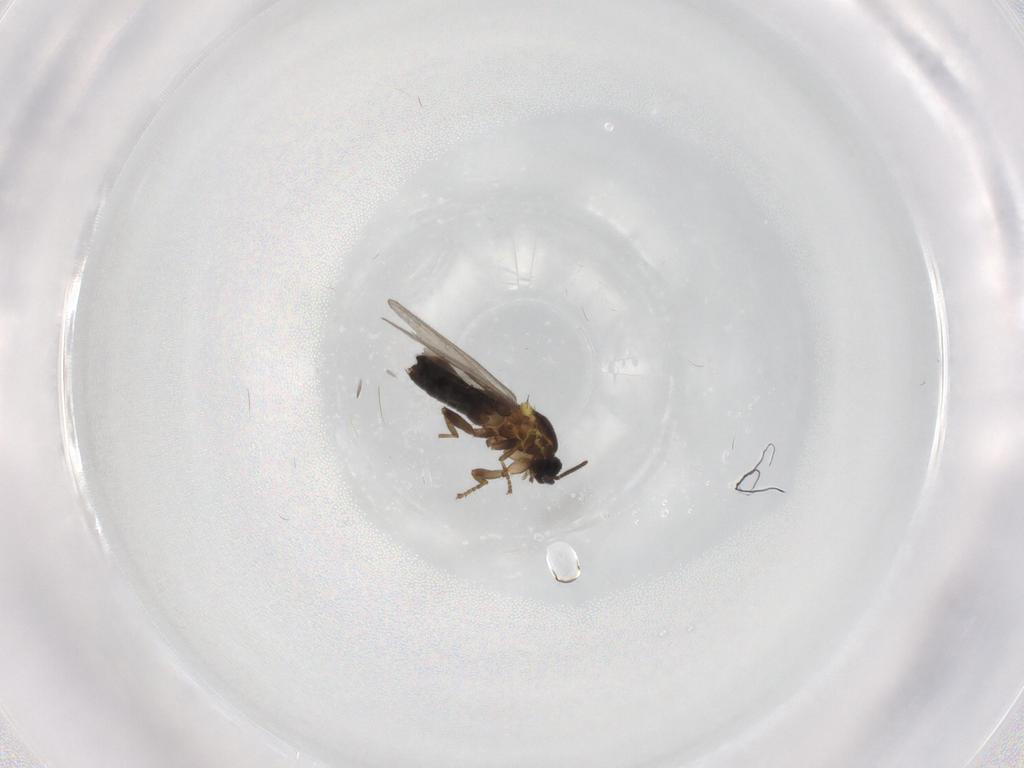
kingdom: Animalia
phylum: Arthropoda
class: Insecta
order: Diptera
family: Scatopsidae
